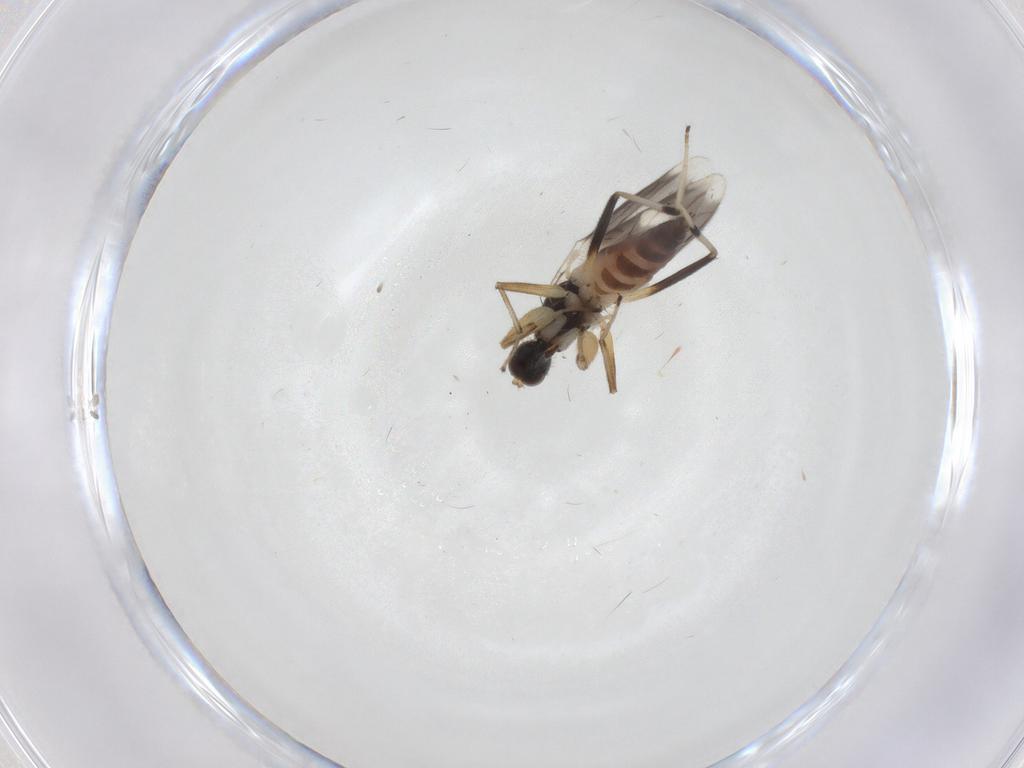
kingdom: Animalia
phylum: Arthropoda
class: Insecta
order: Diptera
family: Hybotidae
